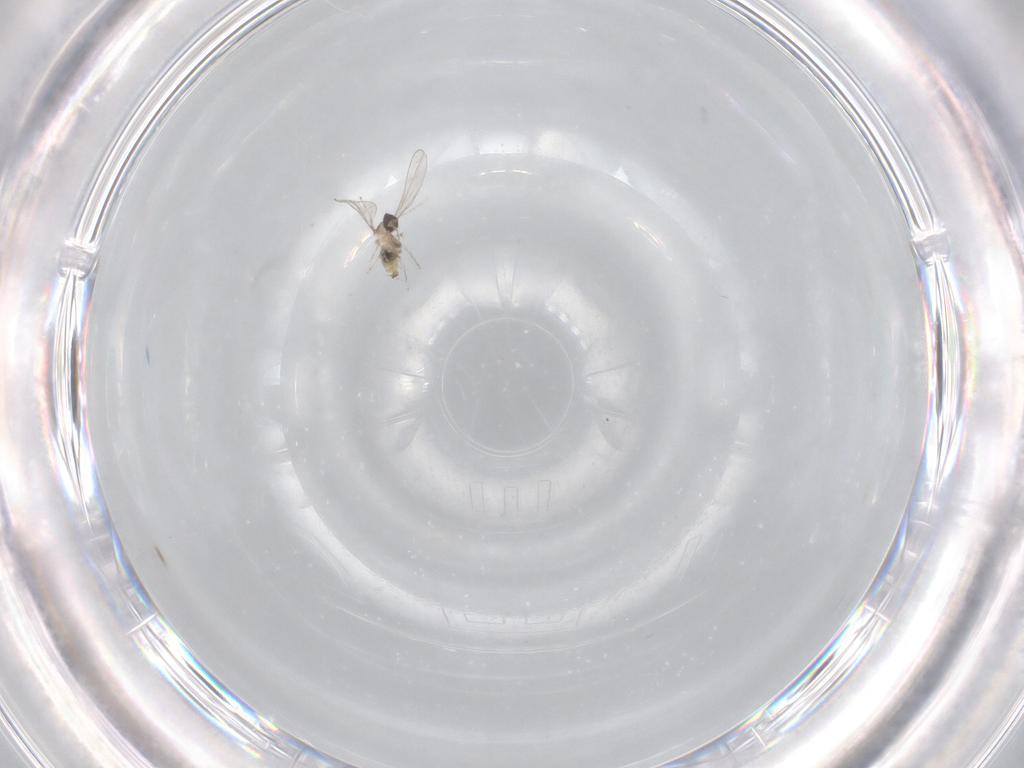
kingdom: Animalia
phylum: Arthropoda
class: Insecta
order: Diptera
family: Cecidomyiidae
